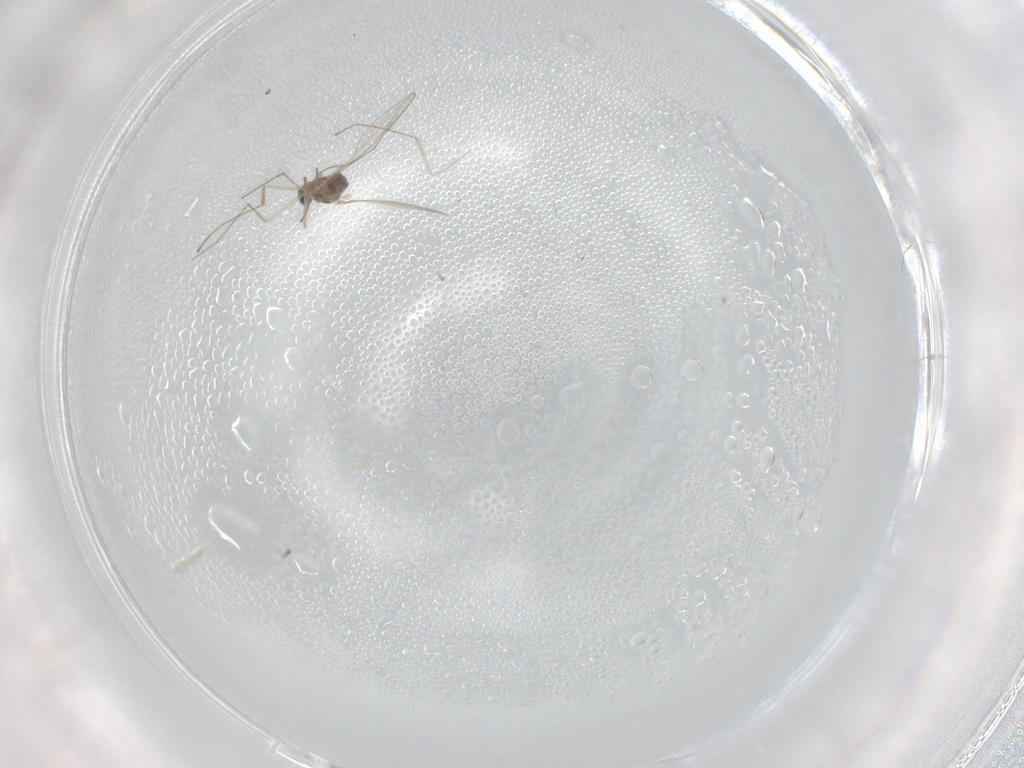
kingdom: Animalia
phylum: Arthropoda
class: Insecta
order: Diptera
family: Cecidomyiidae
